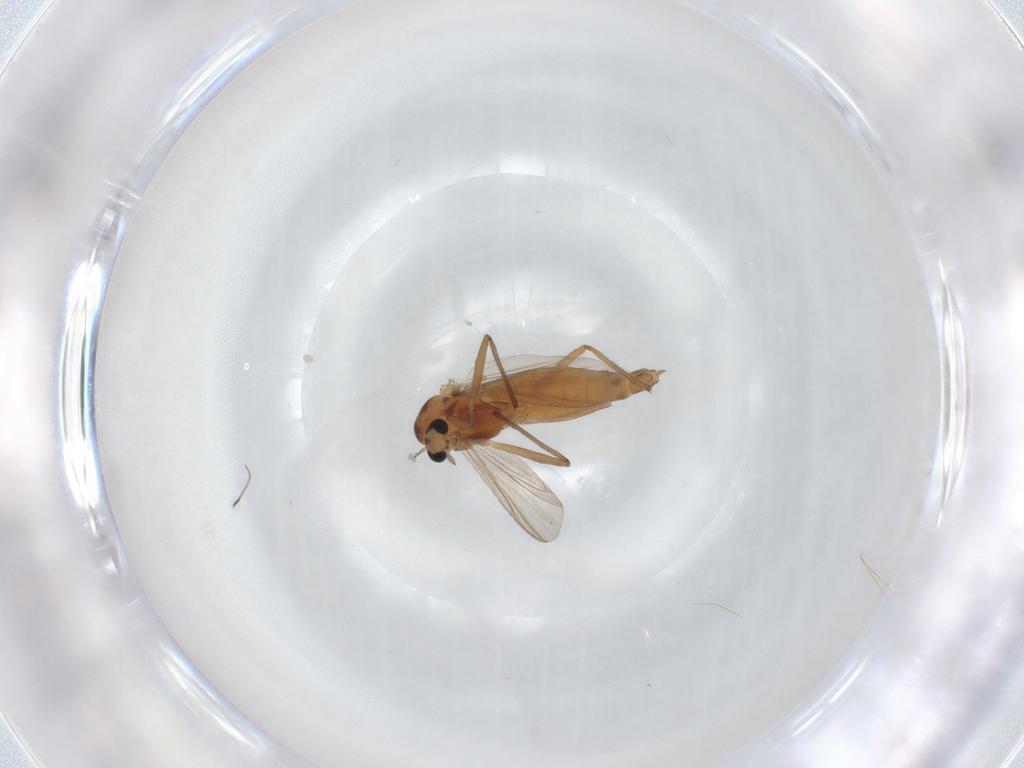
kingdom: Animalia
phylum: Arthropoda
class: Insecta
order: Diptera
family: Chironomidae
